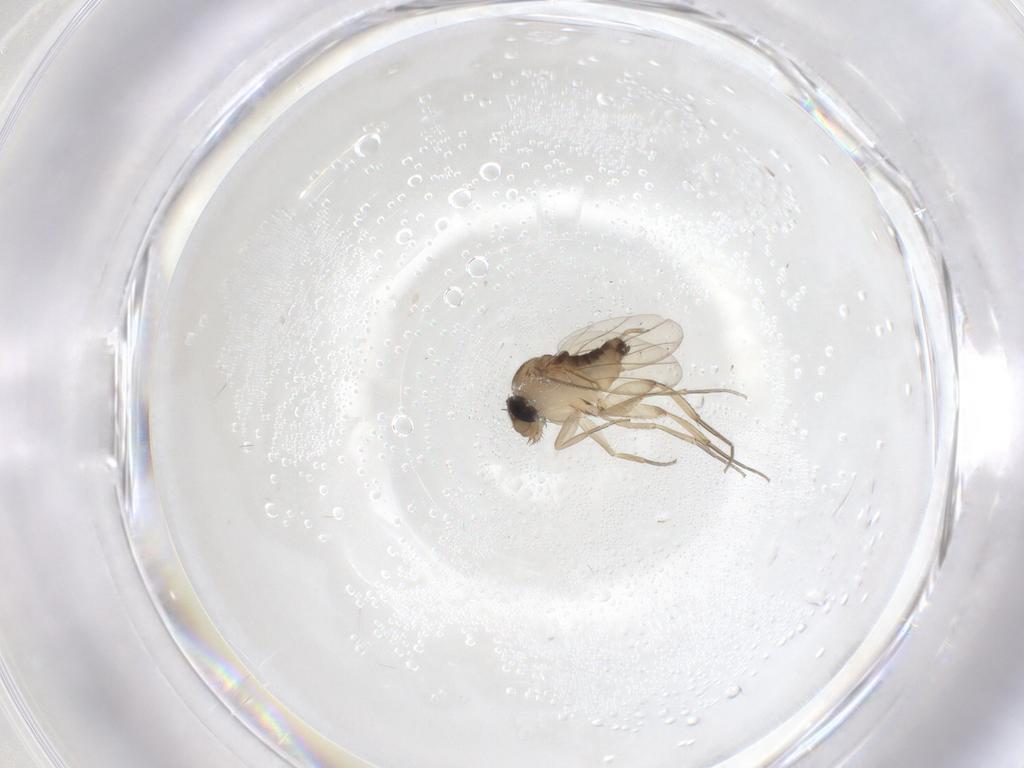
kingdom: Animalia
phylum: Arthropoda
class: Insecta
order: Diptera
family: Phoridae
